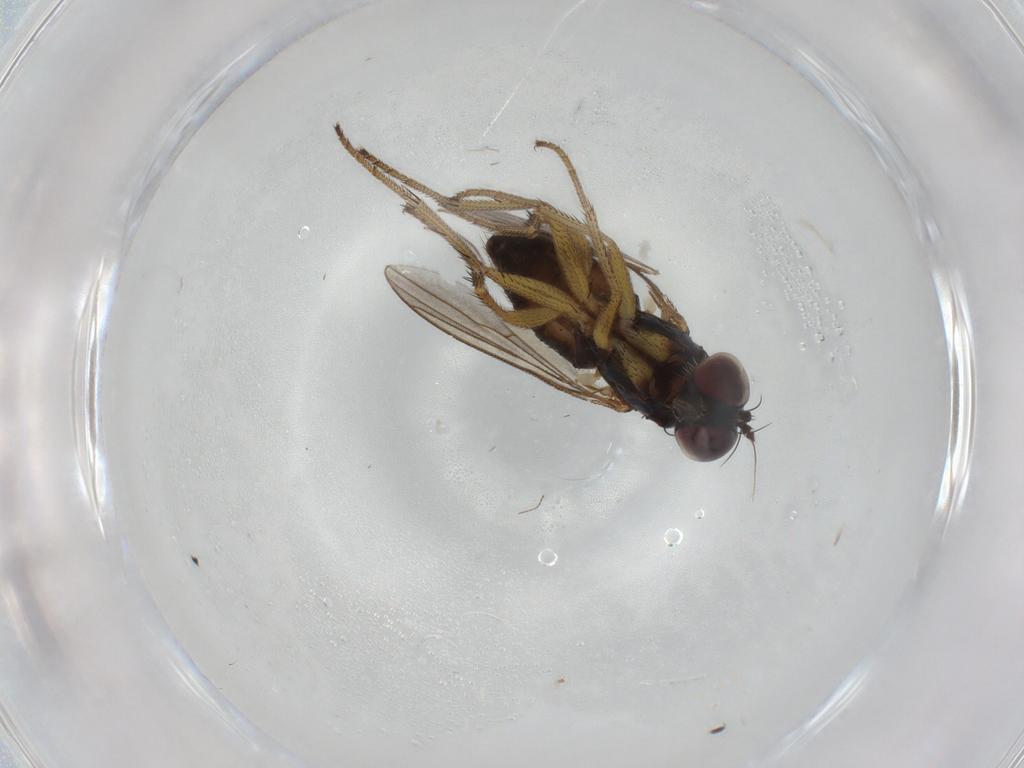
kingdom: Animalia
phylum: Arthropoda
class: Insecta
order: Diptera
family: Dolichopodidae
